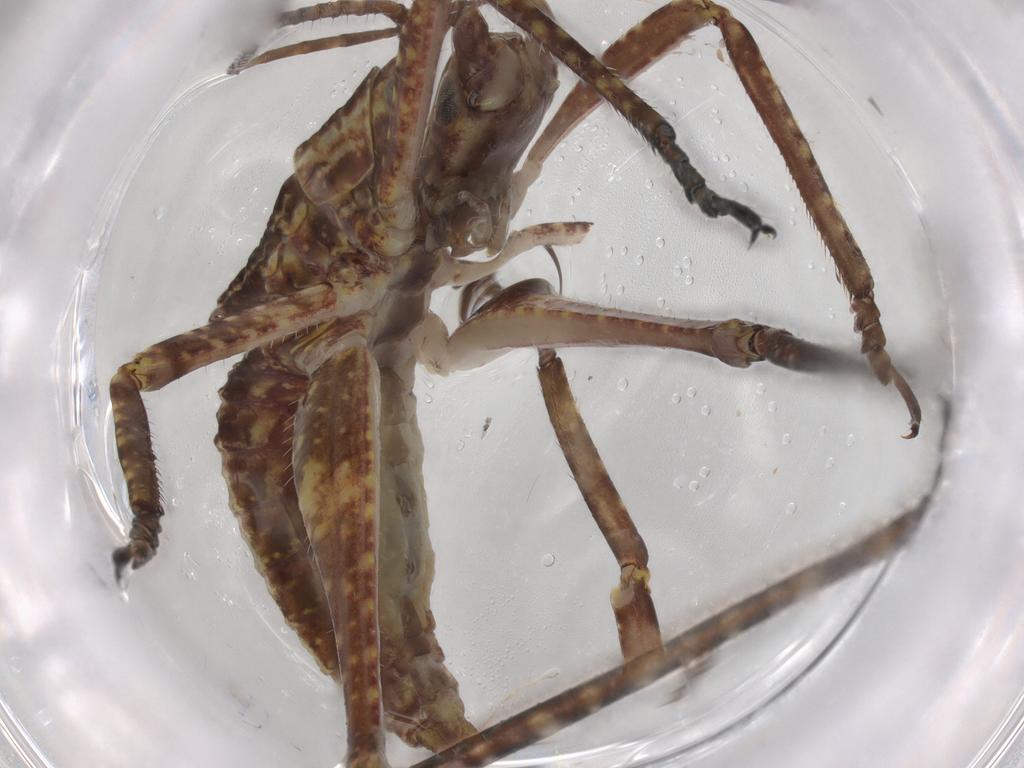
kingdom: Animalia
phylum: Arthropoda
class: Insecta
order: Orthoptera
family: Tettigoniidae
